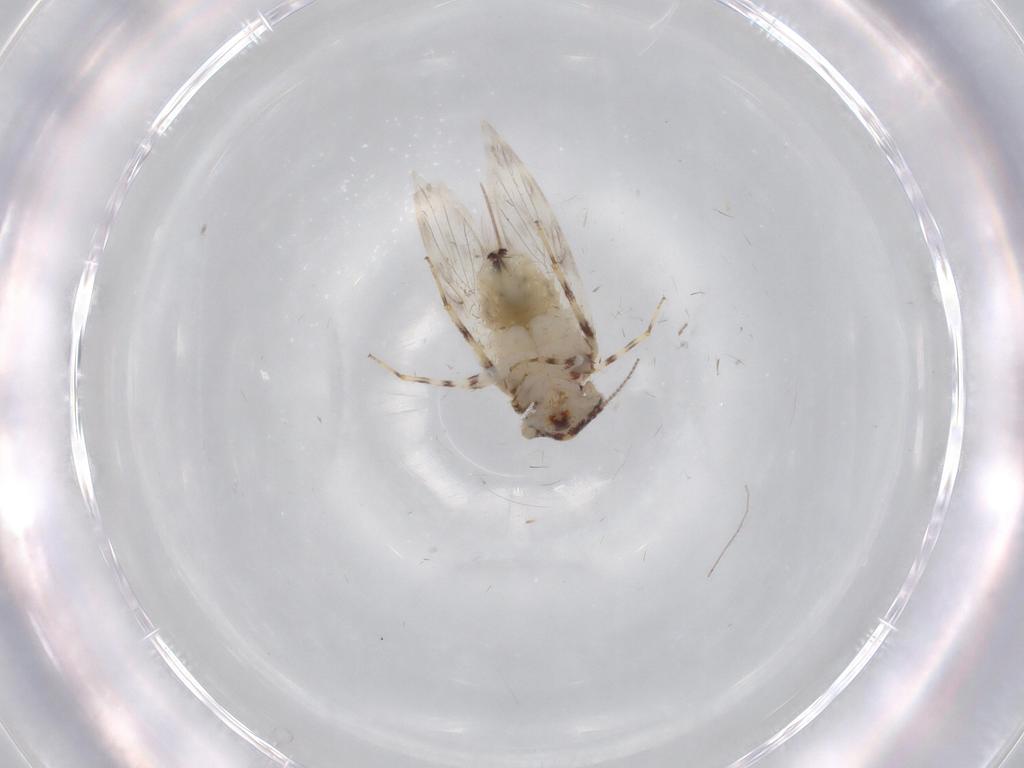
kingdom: Animalia
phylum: Arthropoda
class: Insecta
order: Psocodea
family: Lepidopsocidae
